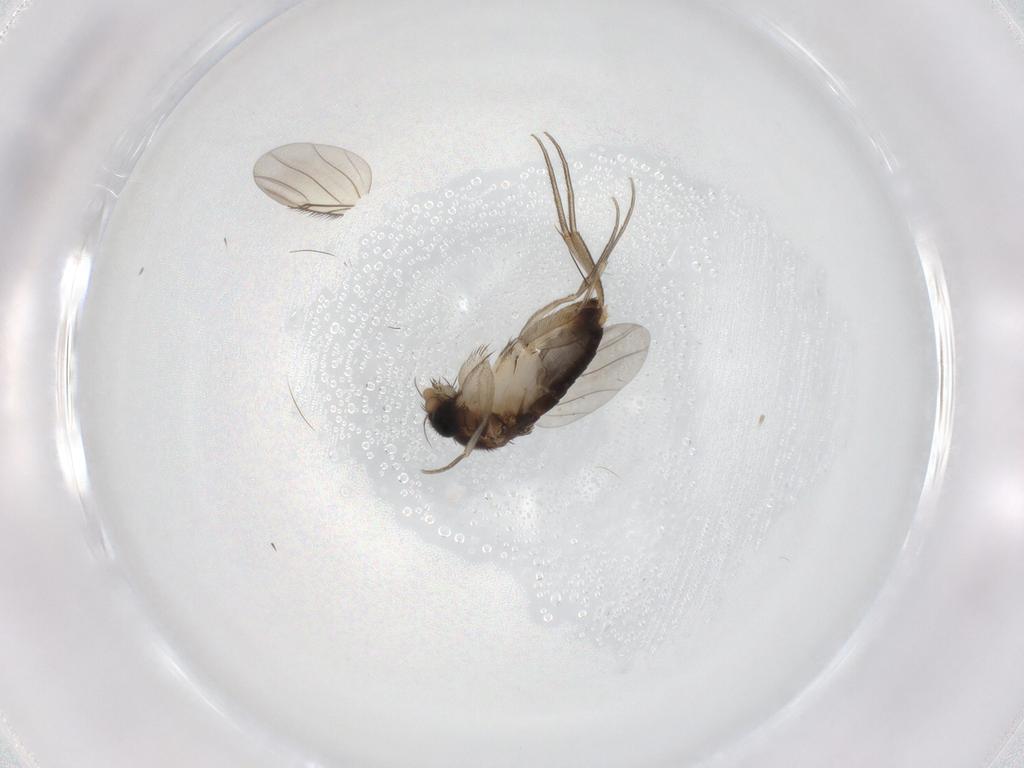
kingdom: Animalia
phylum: Arthropoda
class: Insecta
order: Diptera
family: Phoridae
